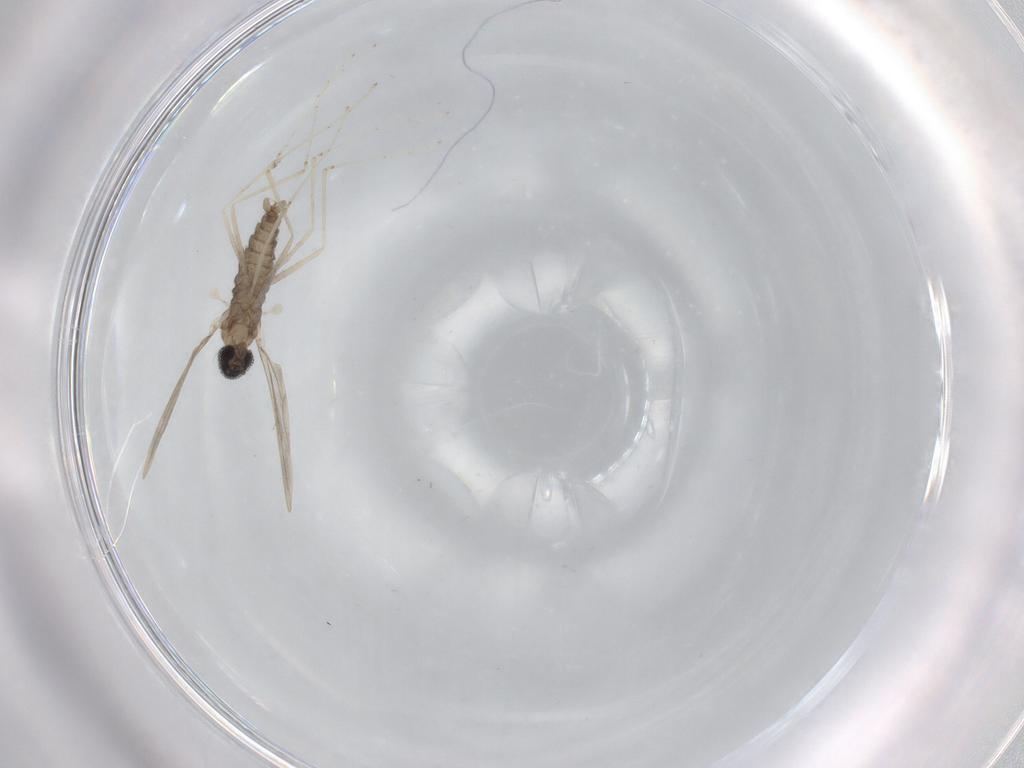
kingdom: Animalia
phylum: Arthropoda
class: Insecta
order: Diptera
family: Cecidomyiidae
